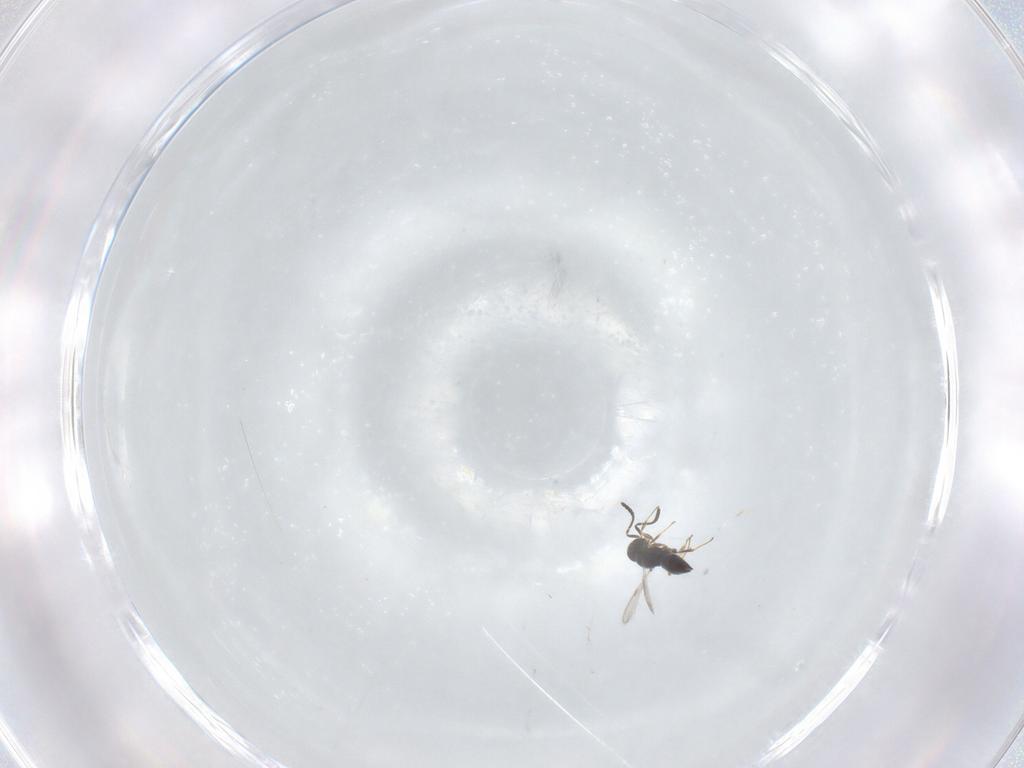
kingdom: Animalia
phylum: Arthropoda
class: Insecta
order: Hymenoptera
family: Scelionidae
